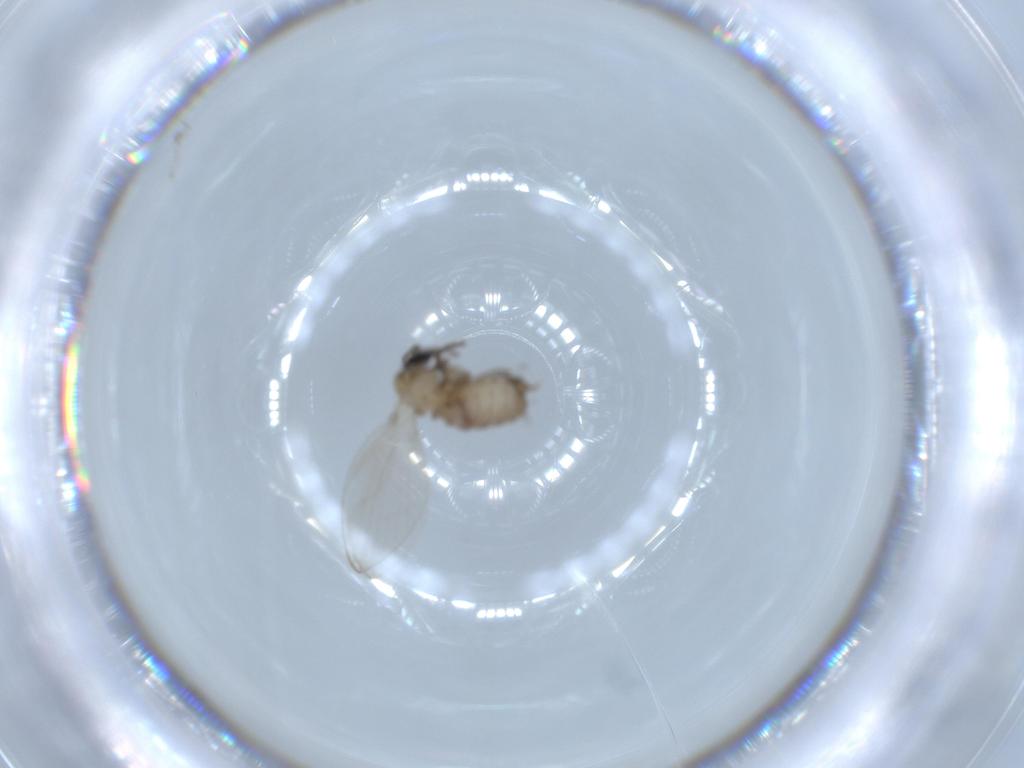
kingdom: Animalia
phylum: Arthropoda
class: Insecta
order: Diptera
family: Psychodidae
